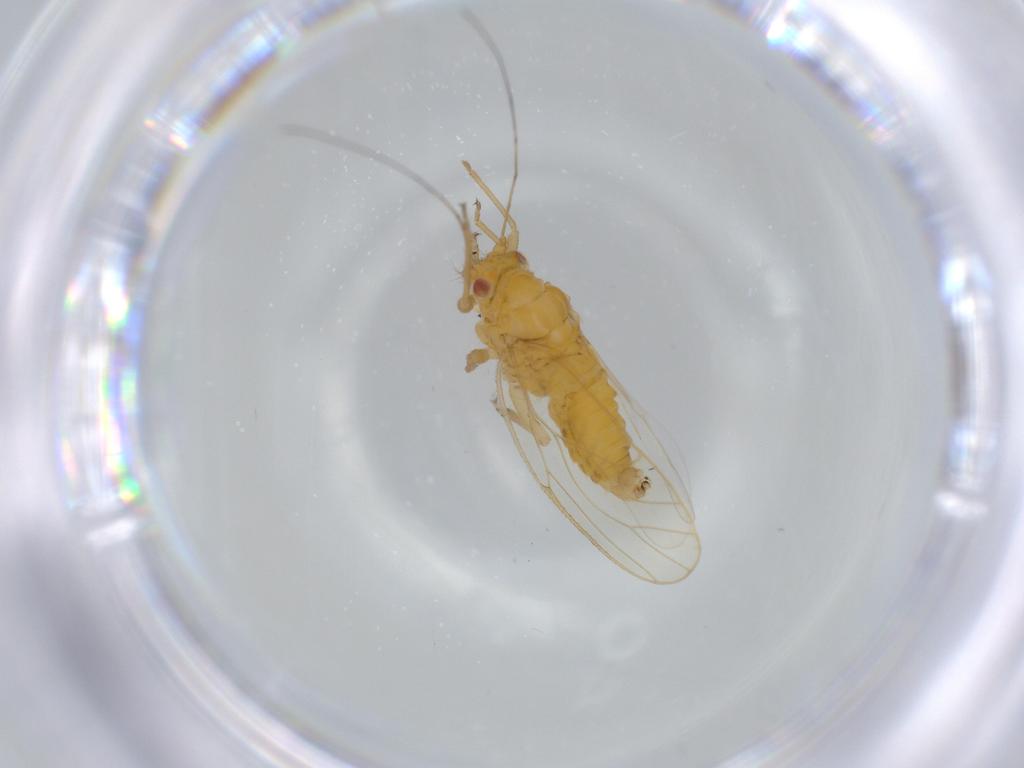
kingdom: Animalia
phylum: Arthropoda
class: Insecta
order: Hemiptera
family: Psyllidae
